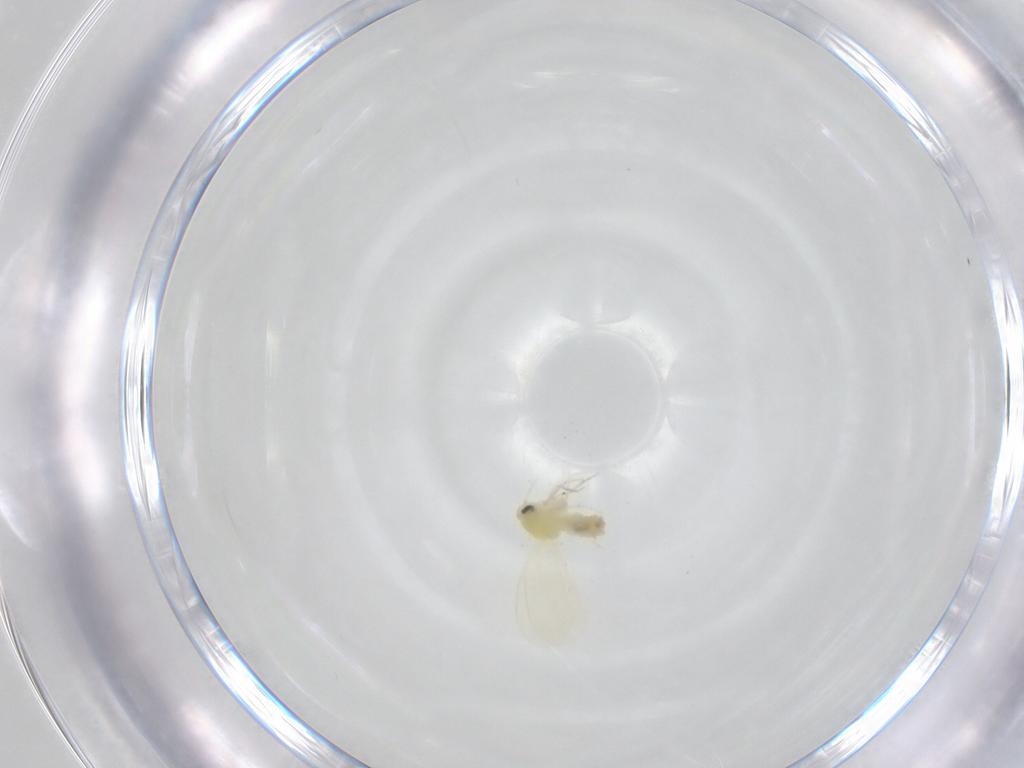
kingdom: Animalia
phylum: Arthropoda
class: Insecta
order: Hemiptera
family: Aleyrodidae
